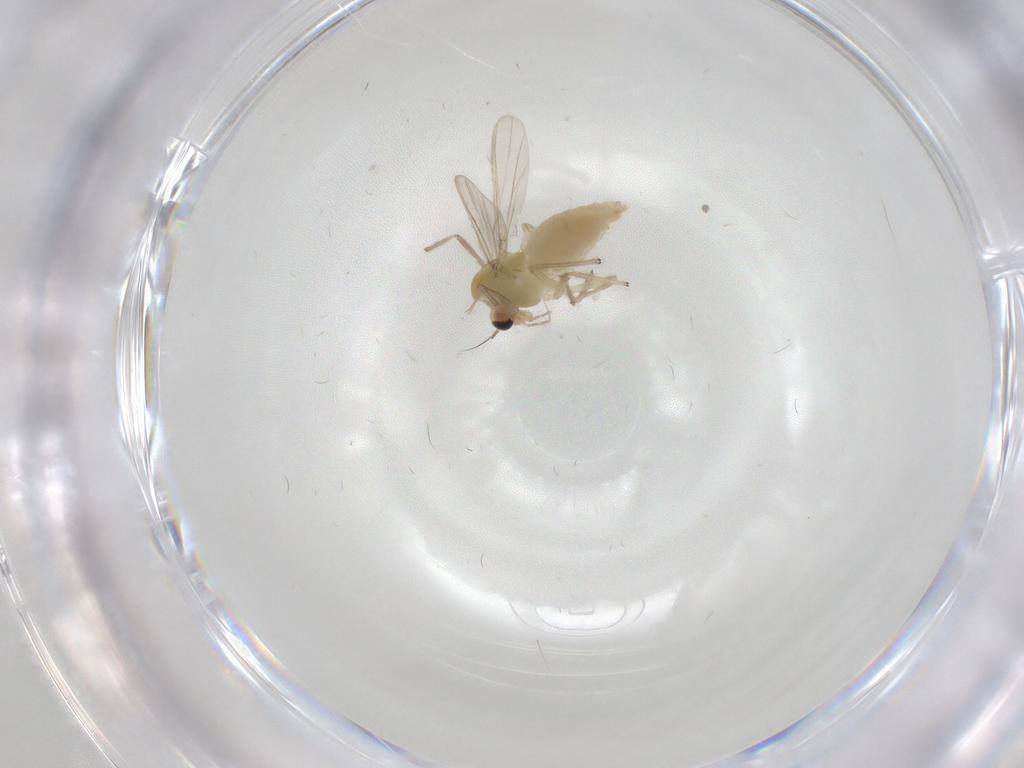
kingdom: Animalia
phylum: Arthropoda
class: Insecta
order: Diptera
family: Chironomidae
